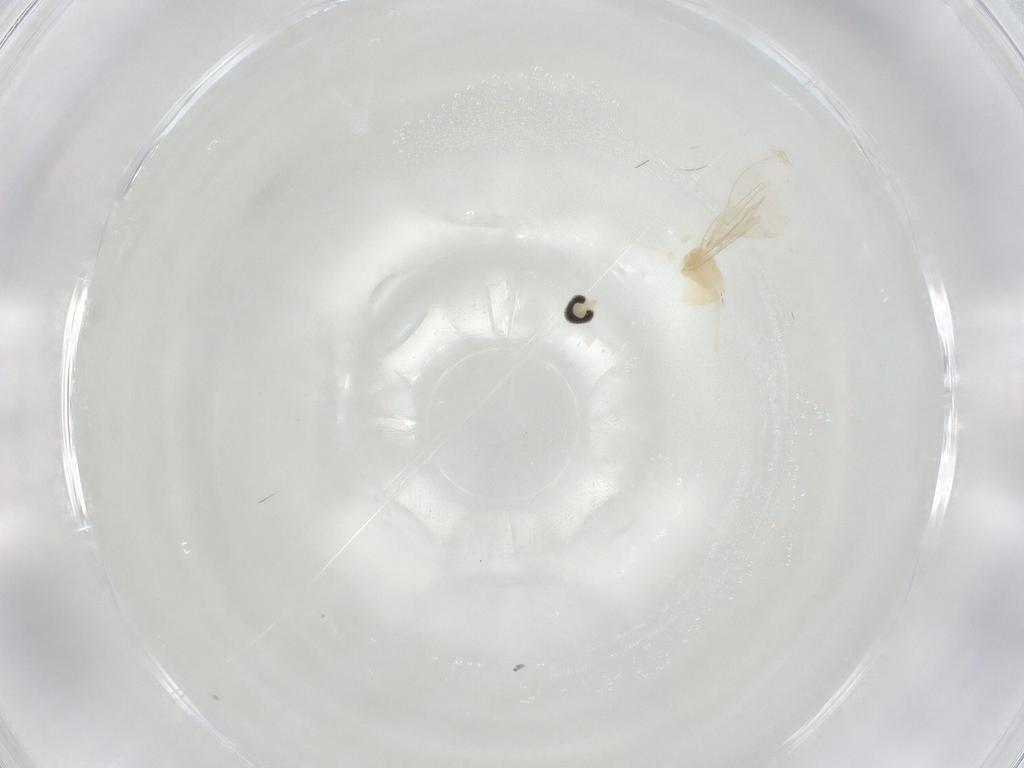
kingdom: Animalia
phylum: Arthropoda
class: Insecta
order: Diptera
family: Cecidomyiidae
